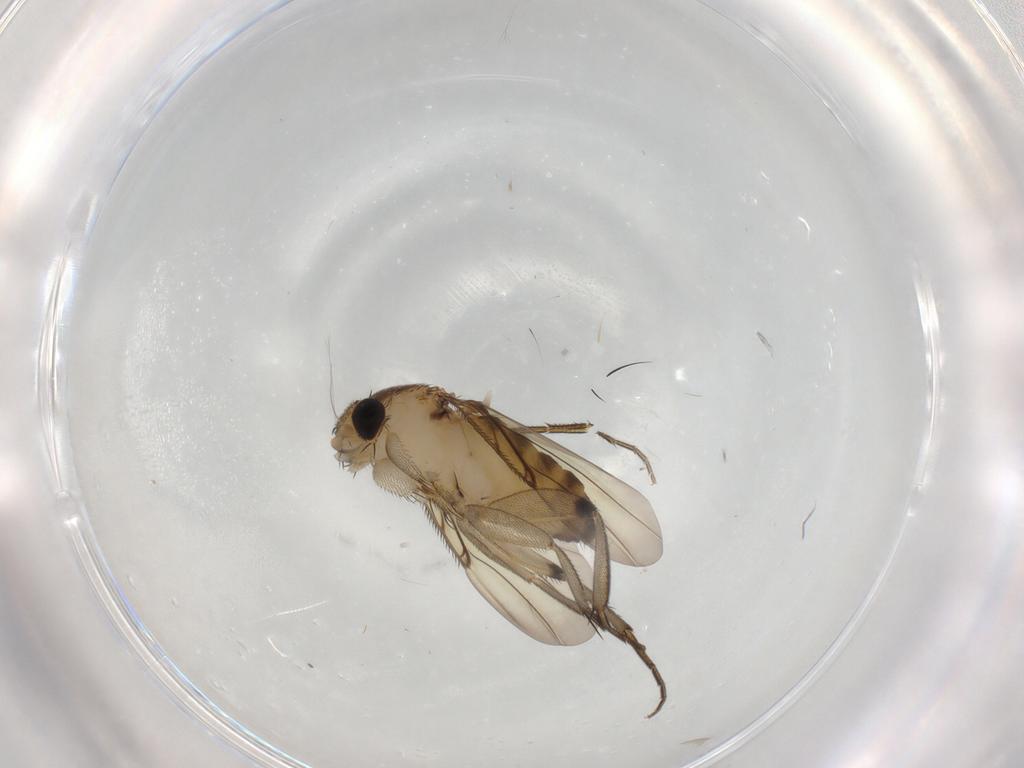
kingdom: Animalia
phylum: Arthropoda
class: Insecta
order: Diptera
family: Phoridae
